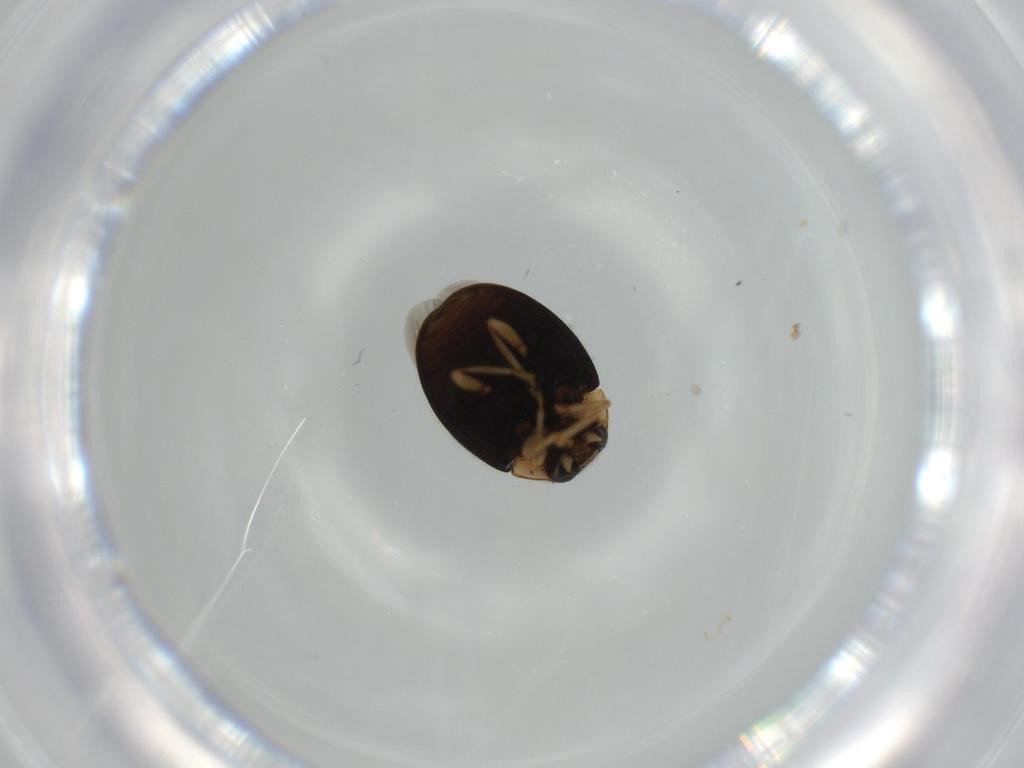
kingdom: Animalia
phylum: Arthropoda
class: Insecta
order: Coleoptera
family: Coccinellidae
